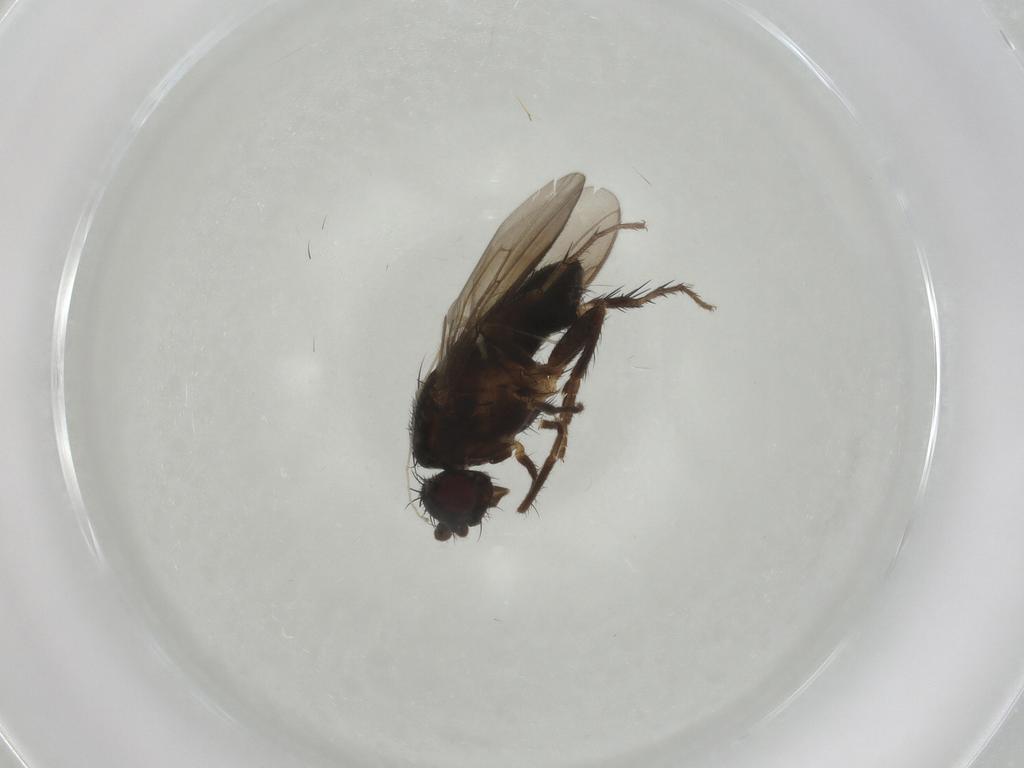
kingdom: Animalia
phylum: Arthropoda
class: Insecta
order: Diptera
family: Sphaeroceridae
